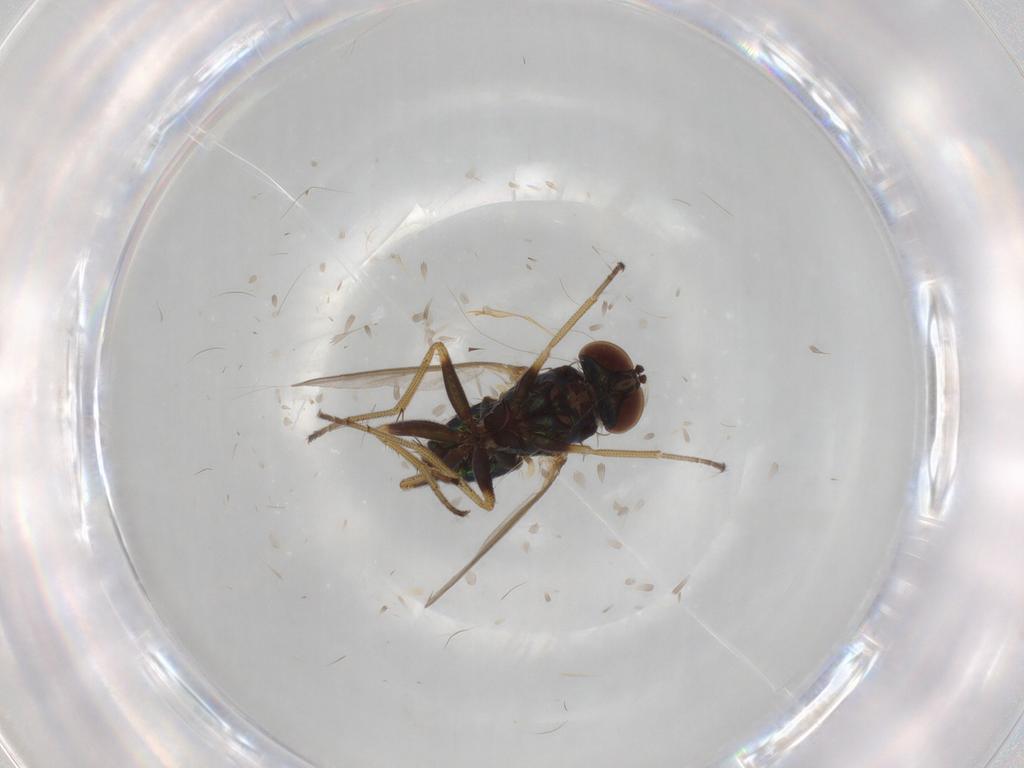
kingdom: Animalia
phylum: Arthropoda
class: Insecta
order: Diptera
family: Dolichopodidae
